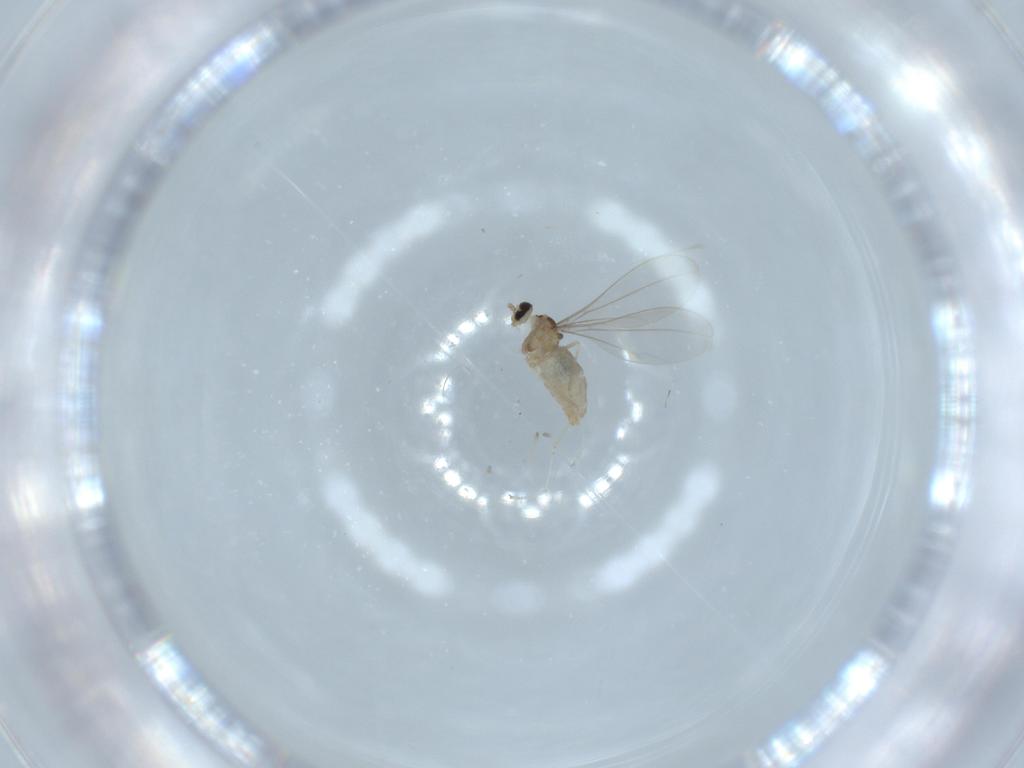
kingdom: Animalia
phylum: Arthropoda
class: Insecta
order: Diptera
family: Cecidomyiidae
